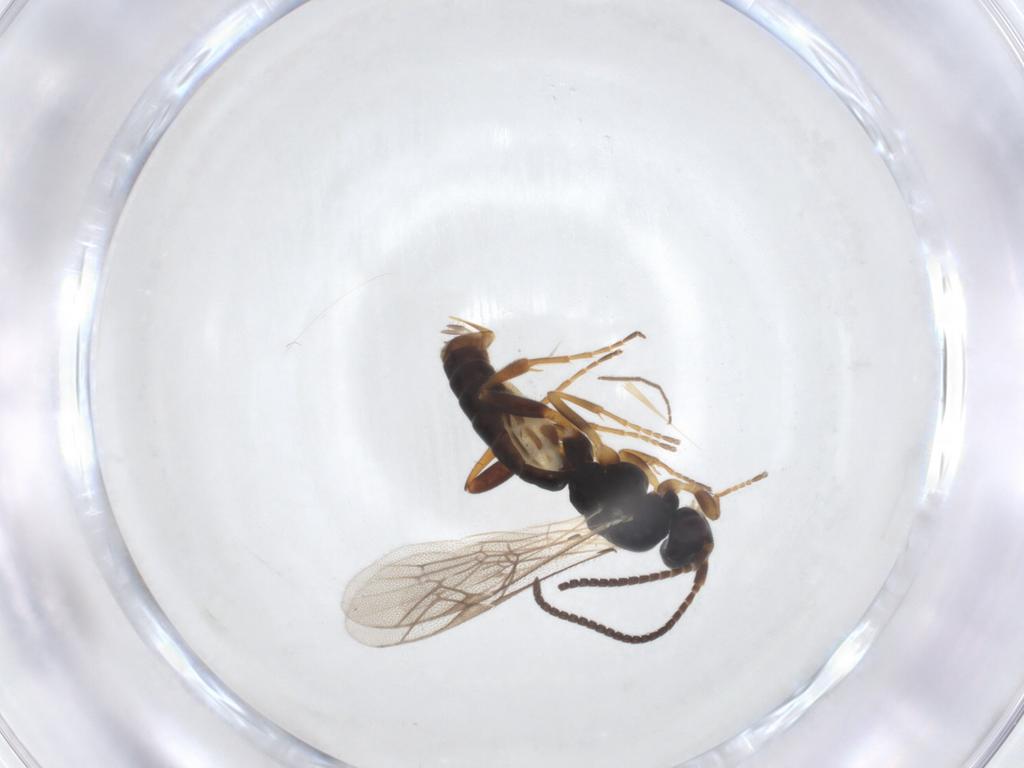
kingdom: Animalia
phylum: Arthropoda
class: Insecta
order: Hymenoptera
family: Ichneumonidae
